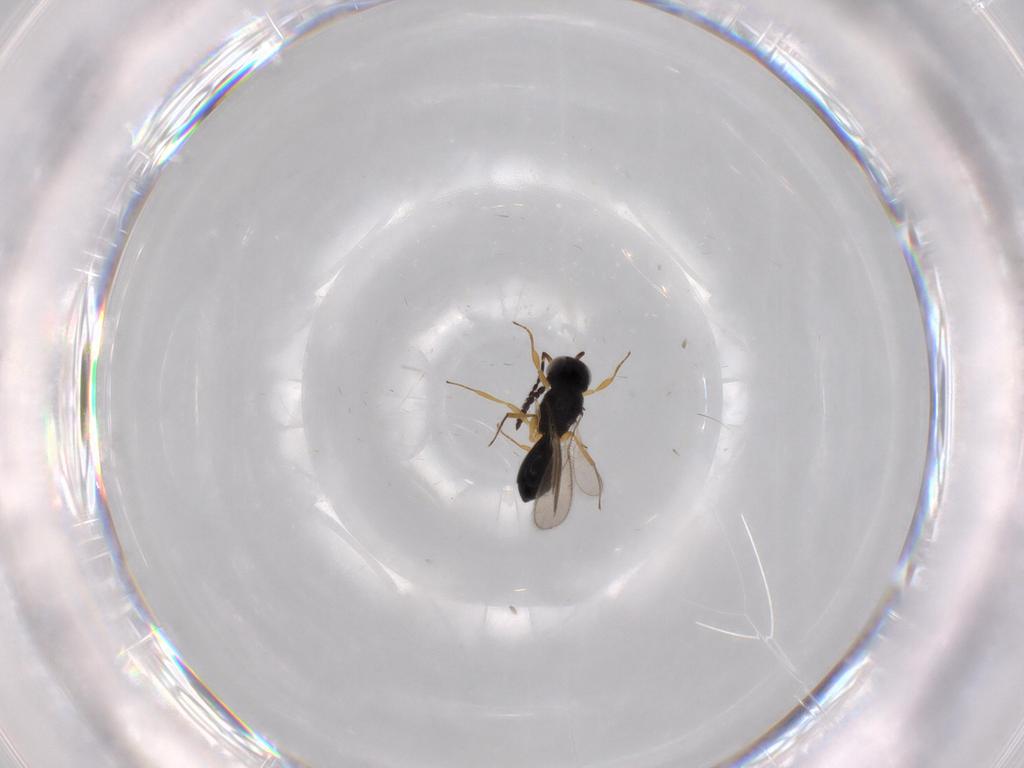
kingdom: Animalia
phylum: Arthropoda
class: Insecta
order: Hymenoptera
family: Scelionidae
